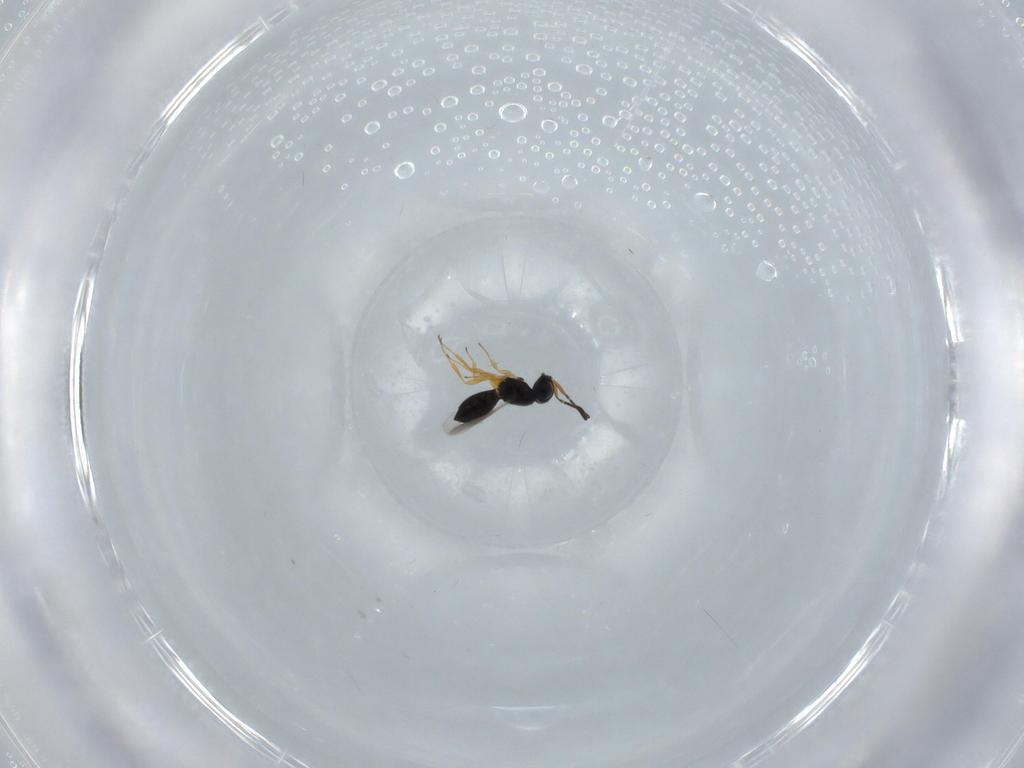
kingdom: Animalia
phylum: Arthropoda
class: Insecta
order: Hymenoptera
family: Scelionidae
